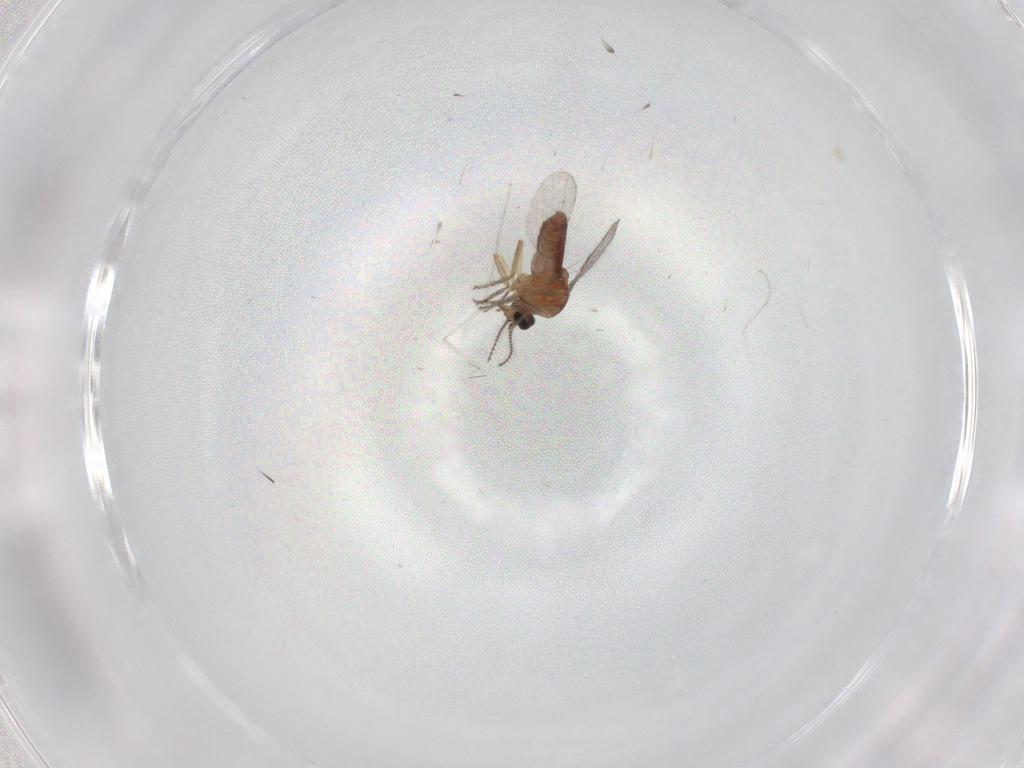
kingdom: Animalia
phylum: Arthropoda
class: Insecta
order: Diptera
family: Ceratopogonidae
